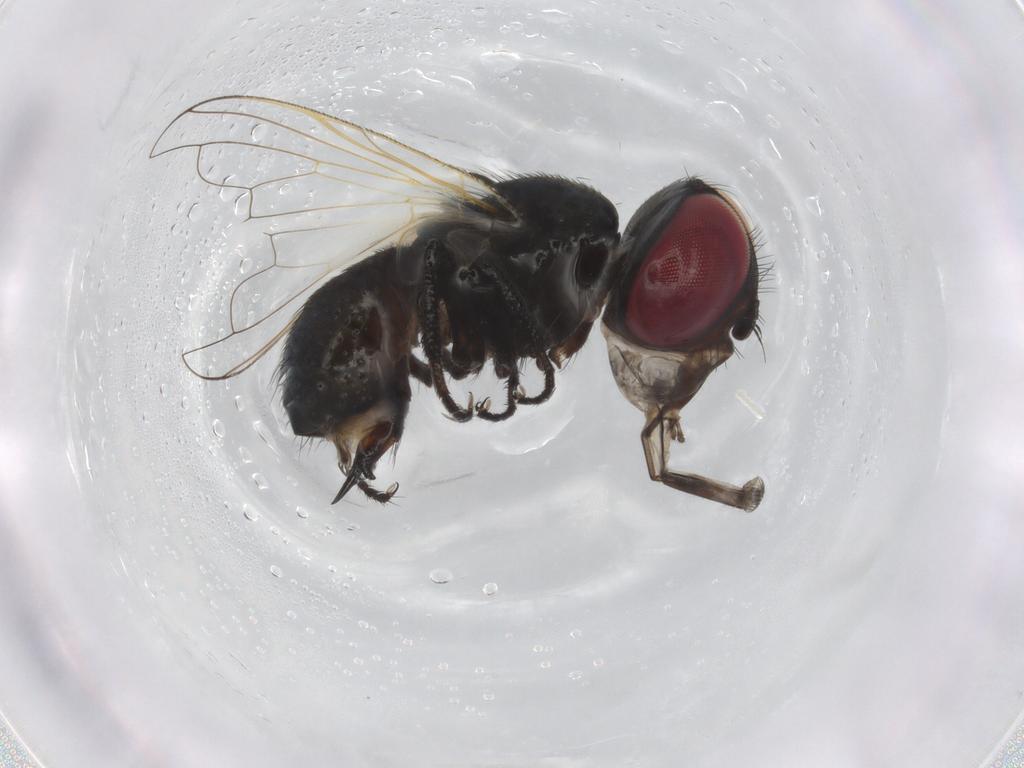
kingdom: Animalia
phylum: Arthropoda
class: Insecta
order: Diptera
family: Tachinidae
